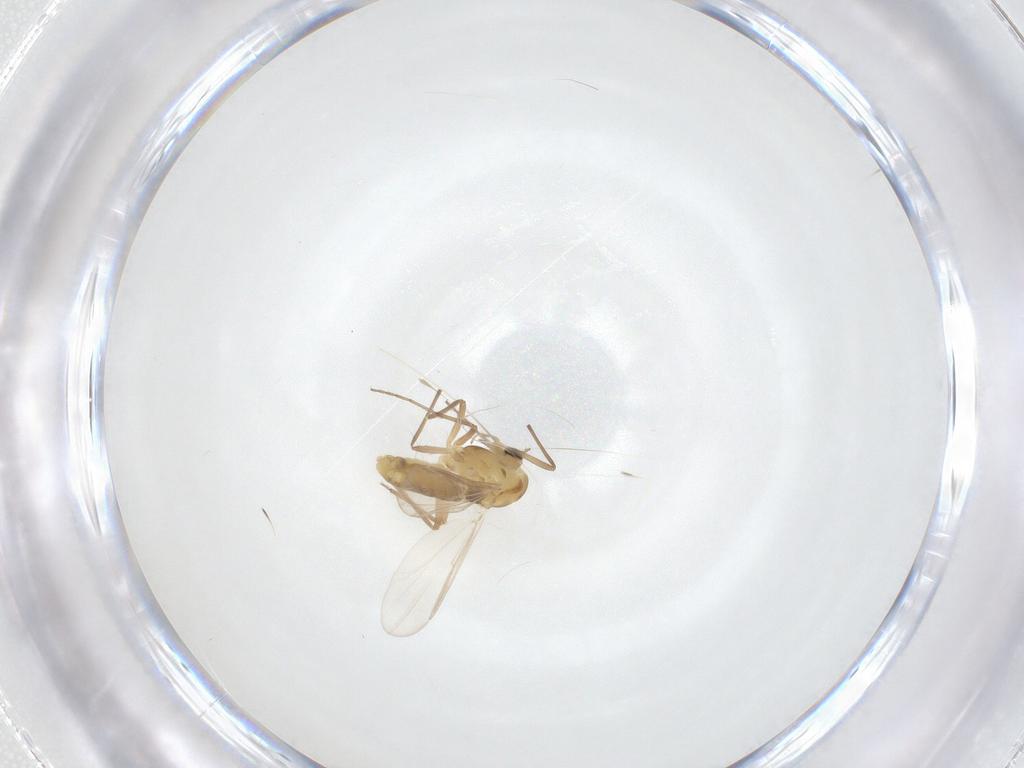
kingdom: Animalia
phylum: Arthropoda
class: Insecta
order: Diptera
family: Chironomidae
